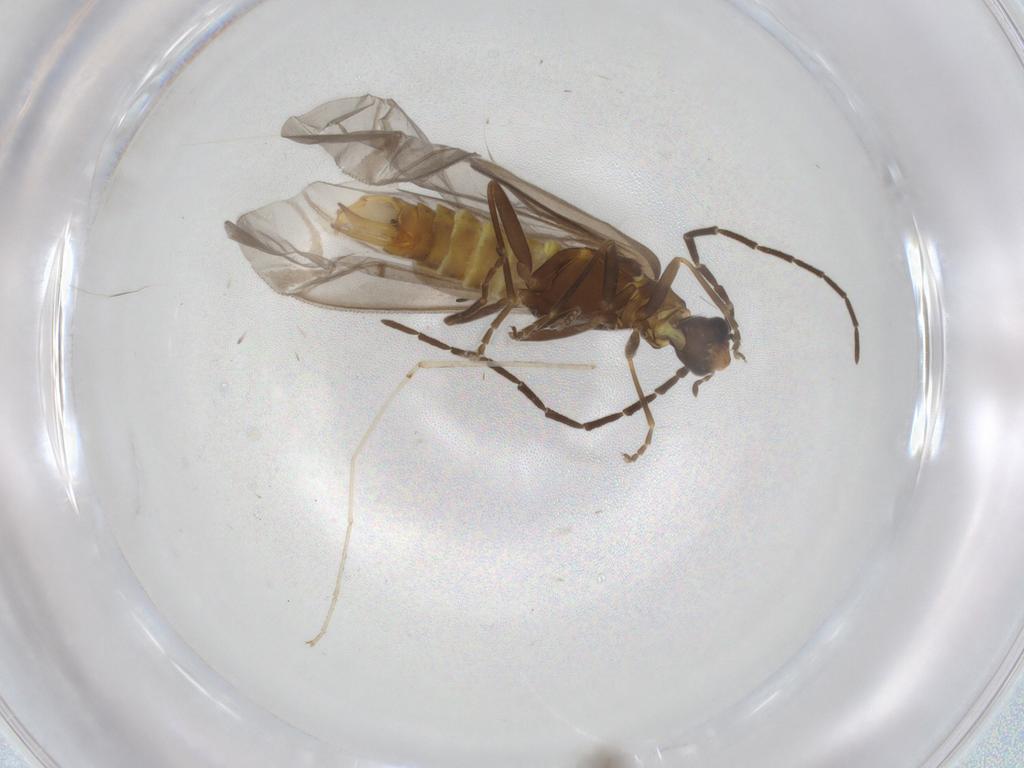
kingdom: Animalia
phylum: Arthropoda
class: Insecta
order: Coleoptera
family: Cantharidae
